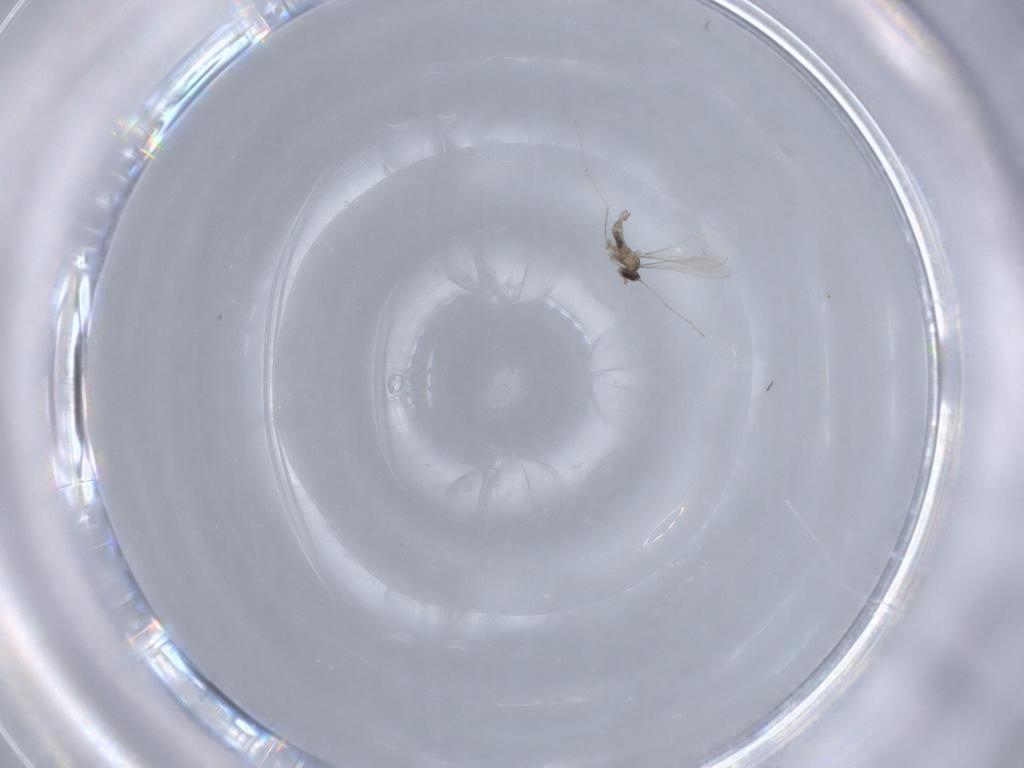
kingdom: Animalia
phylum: Arthropoda
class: Insecta
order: Diptera
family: Cecidomyiidae
